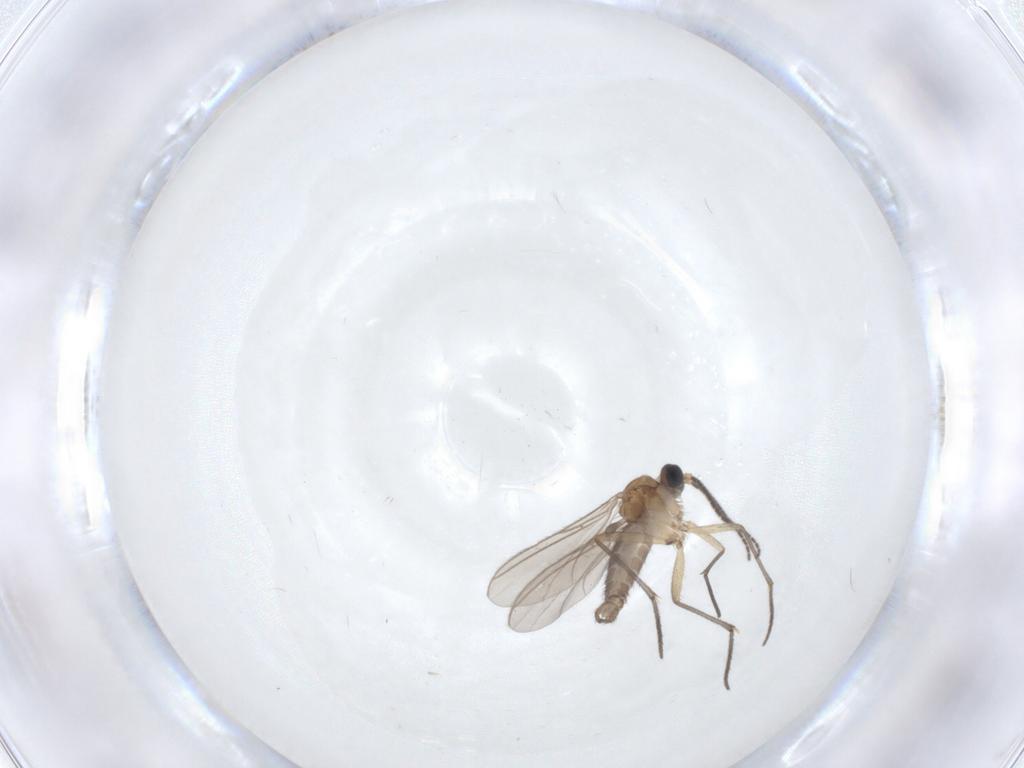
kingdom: Animalia
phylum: Arthropoda
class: Insecta
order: Diptera
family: Sciaridae
